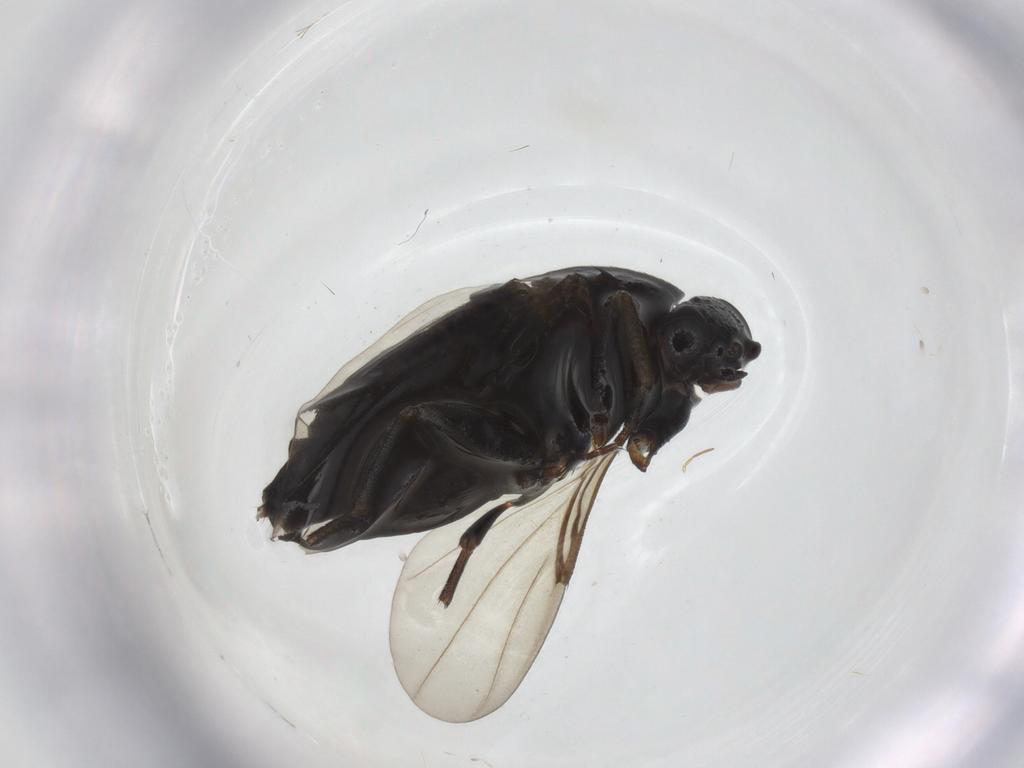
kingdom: Animalia
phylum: Arthropoda
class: Insecta
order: Diptera
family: Phoridae
